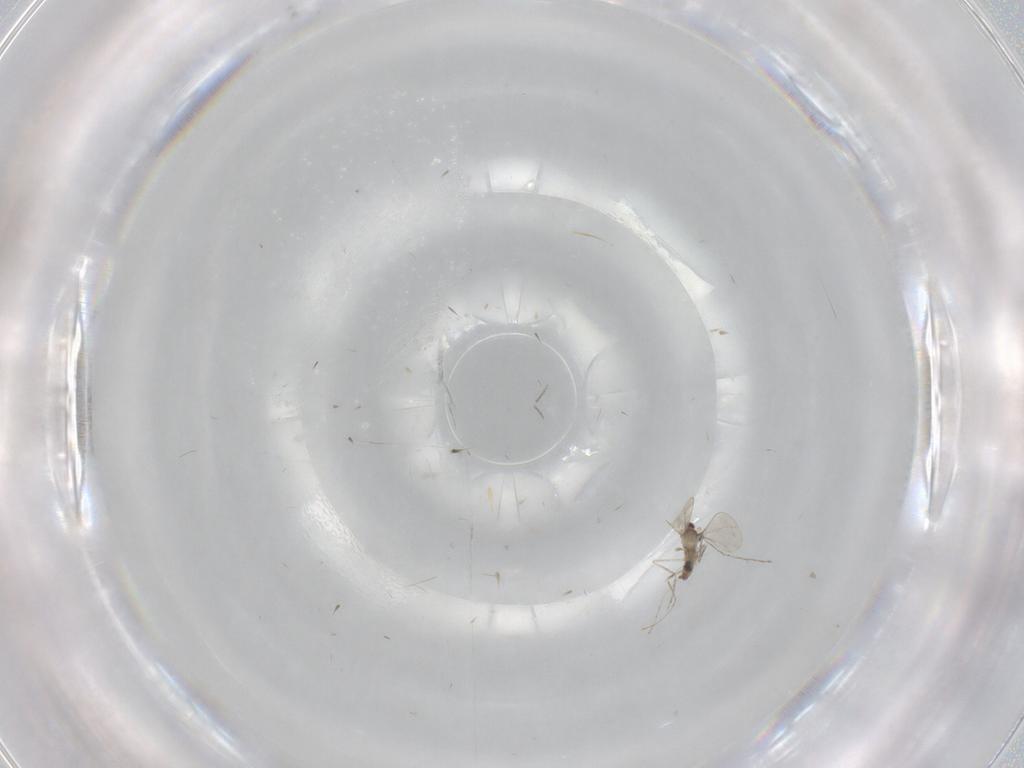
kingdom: Animalia
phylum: Arthropoda
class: Insecta
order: Diptera
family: Cecidomyiidae
